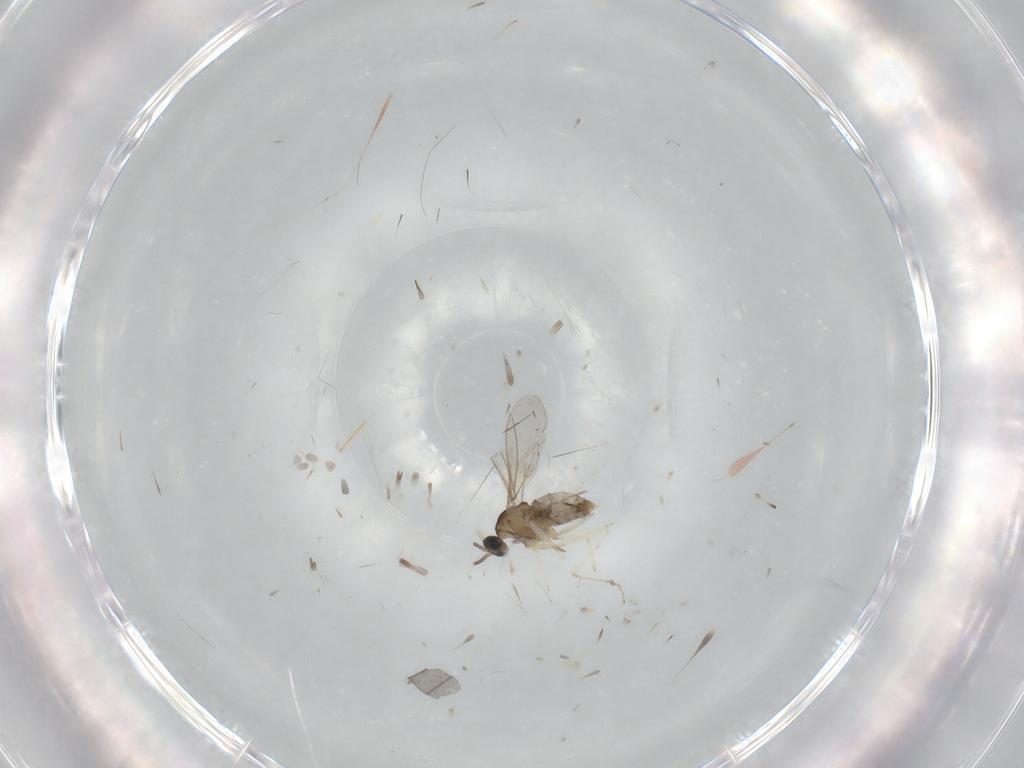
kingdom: Animalia
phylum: Arthropoda
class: Insecta
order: Diptera
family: Cecidomyiidae
